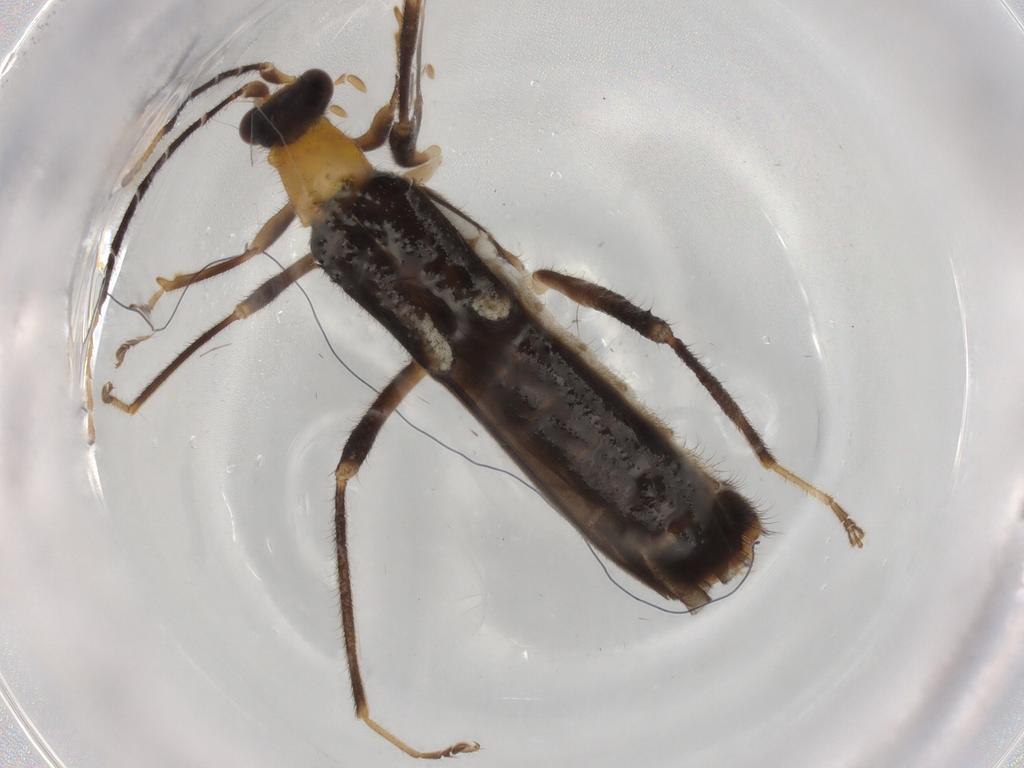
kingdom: Animalia
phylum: Arthropoda
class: Insecta
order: Coleoptera
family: Cantharidae
